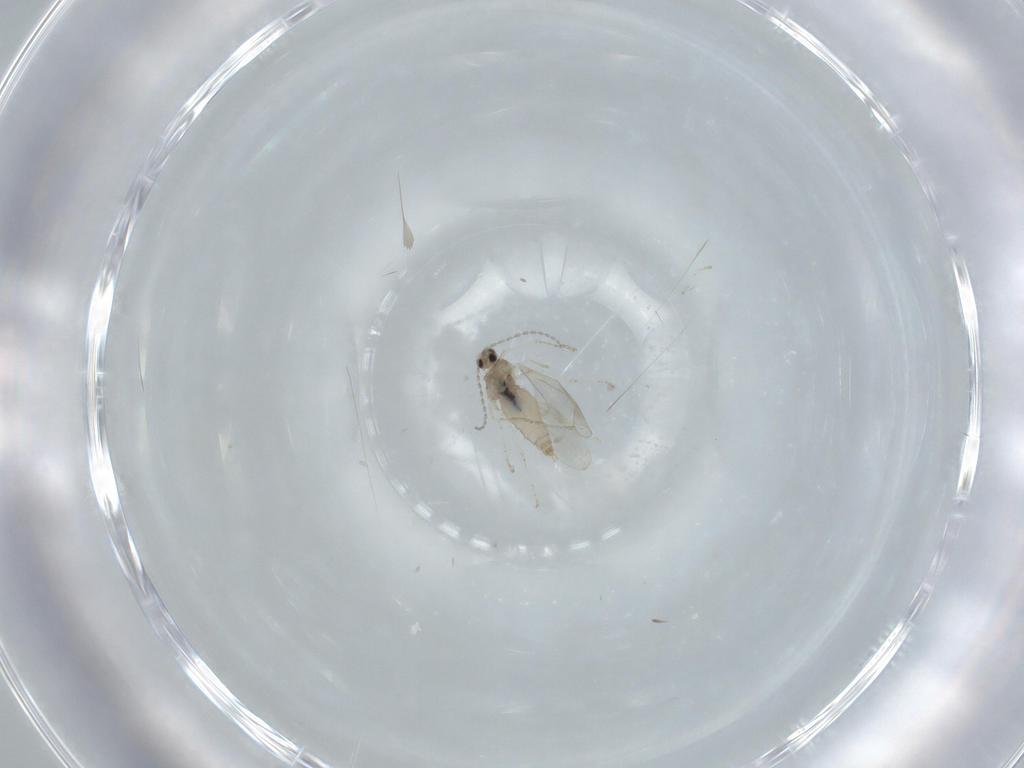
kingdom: Animalia
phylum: Arthropoda
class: Insecta
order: Diptera
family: Cecidomyiidae
